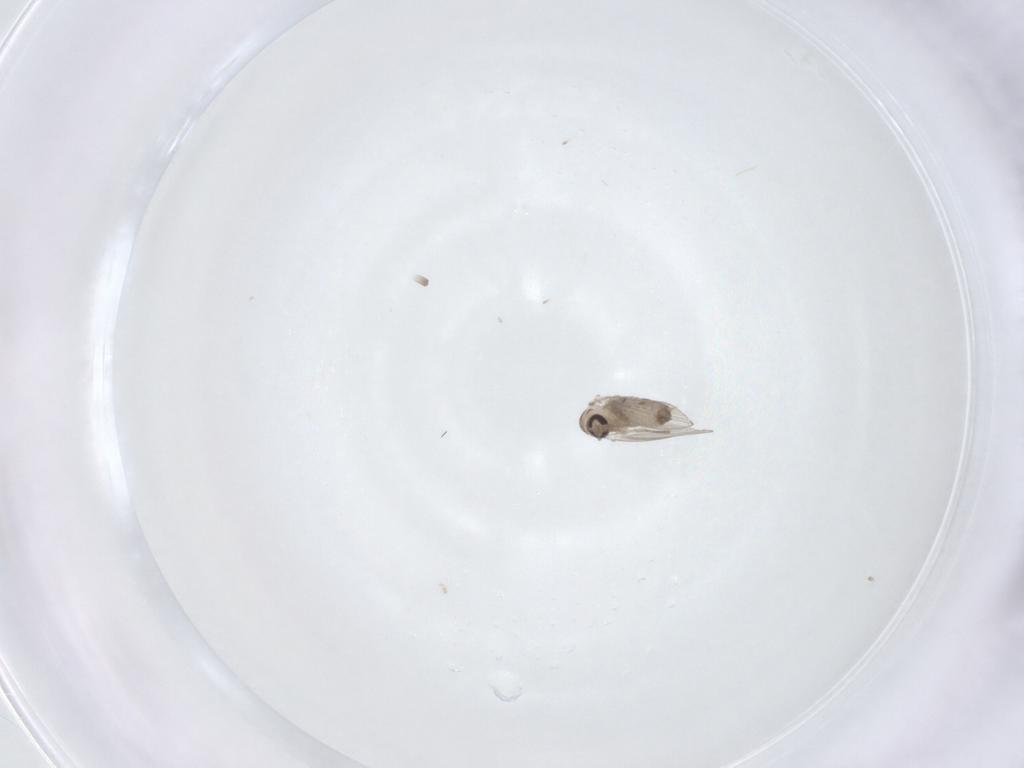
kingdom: Animalia
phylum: Arthropoda
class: Insecta
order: Diptera
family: Psychodidae
